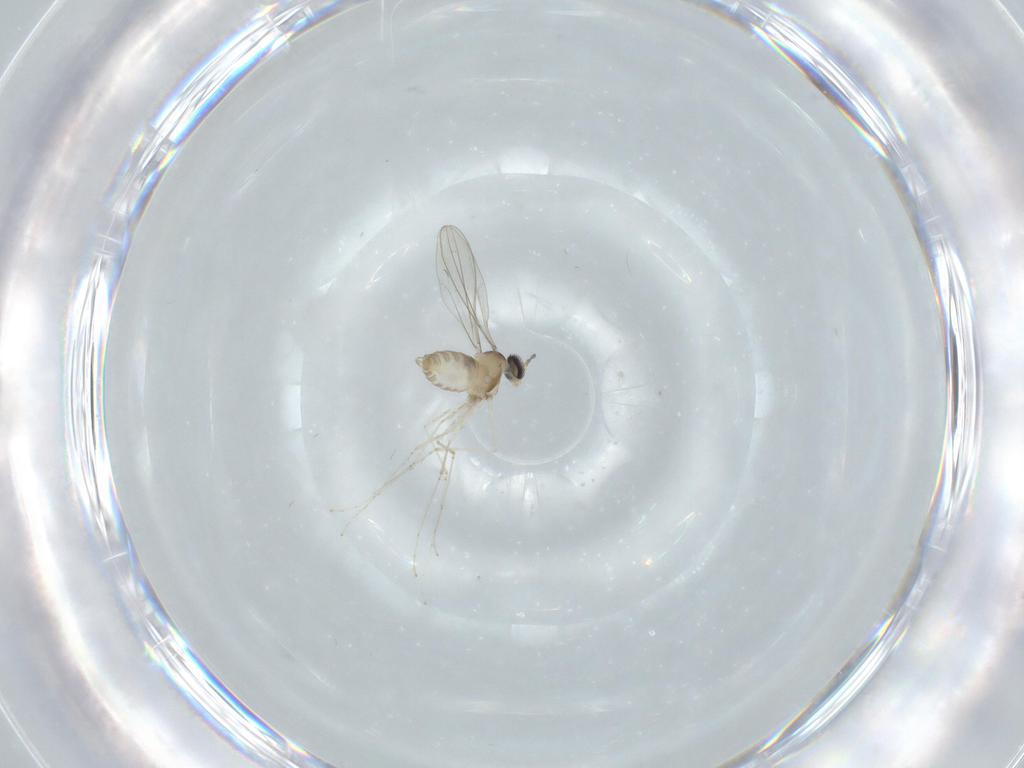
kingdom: Animalia
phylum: Arthropoda
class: Insecta
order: Diptera
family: Cecidomyiidae
